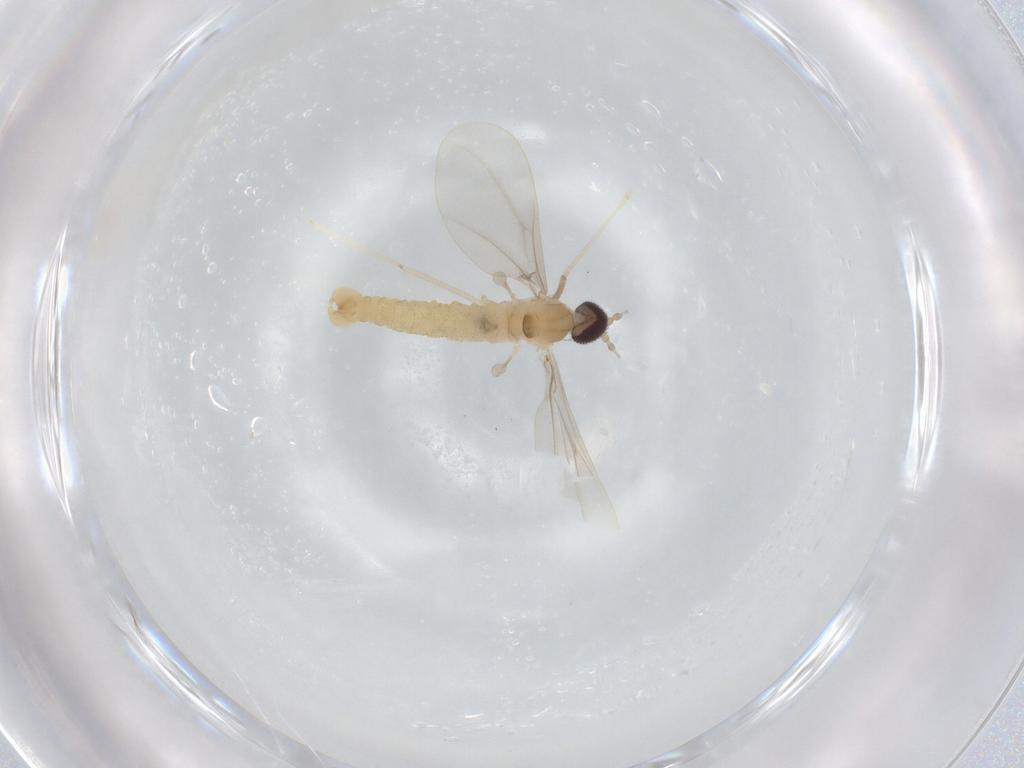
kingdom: Animalia
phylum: Arthropoda
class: Insecta
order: Diptera
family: Cecidomyiidae
